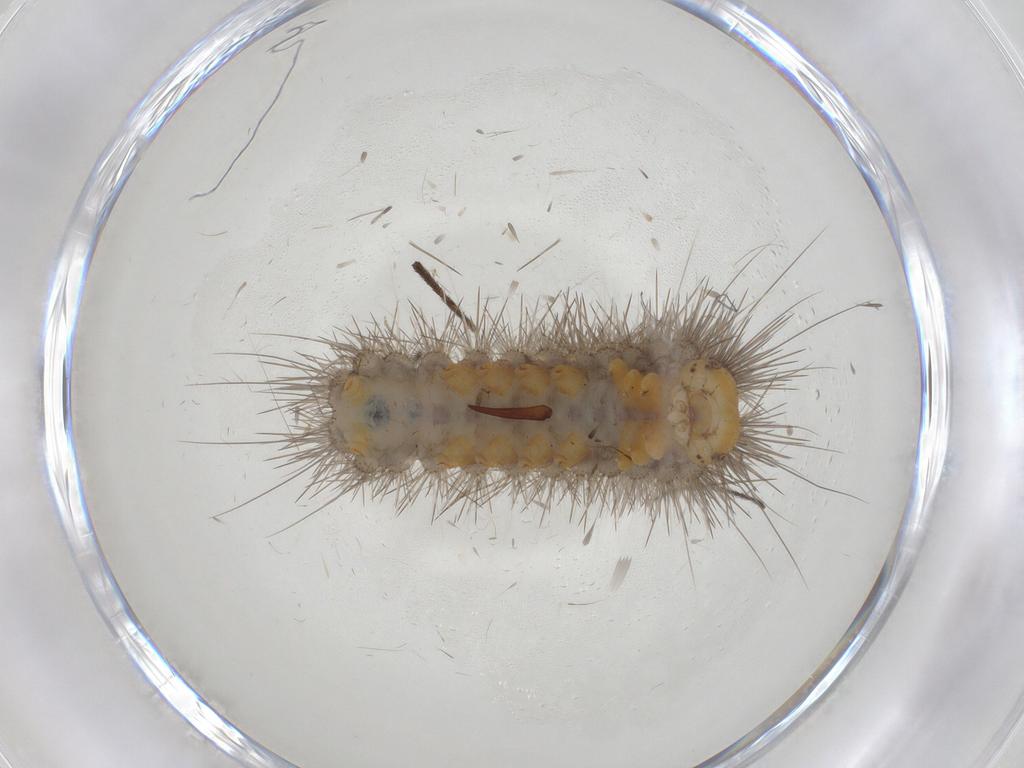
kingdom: Animalia
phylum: Arthropoda
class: Insecta
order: Lepidoptera
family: Erebidae
